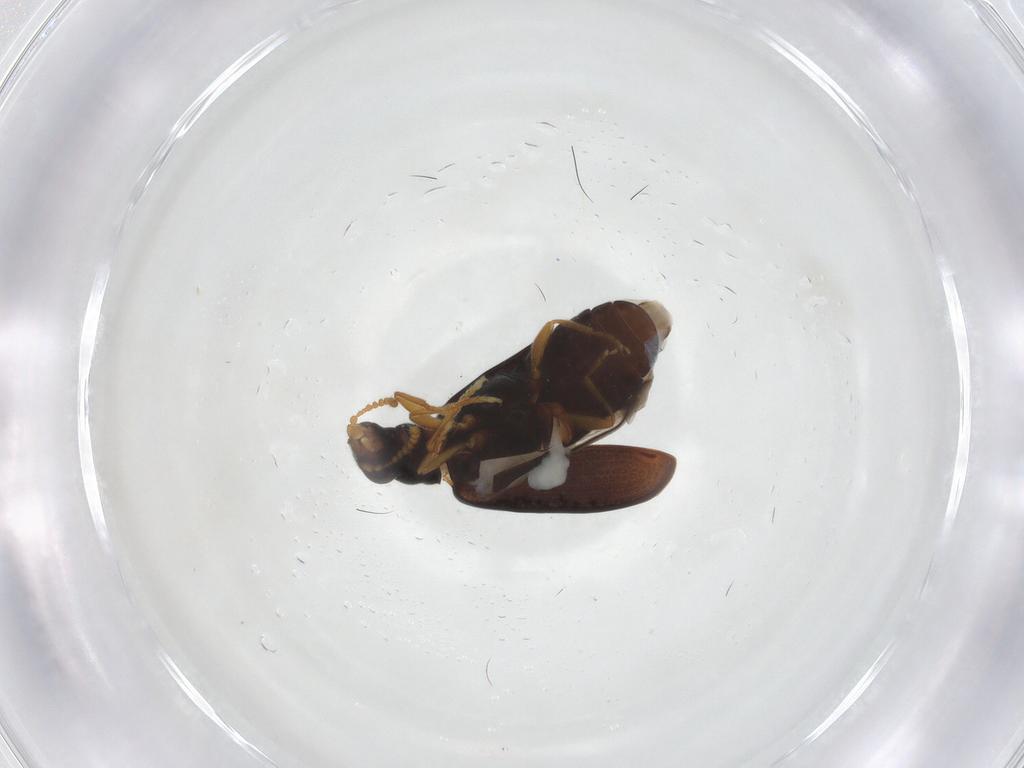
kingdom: Animalia
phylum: Arthropoda
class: Insecta
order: Coleoptera
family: Mycteridae
